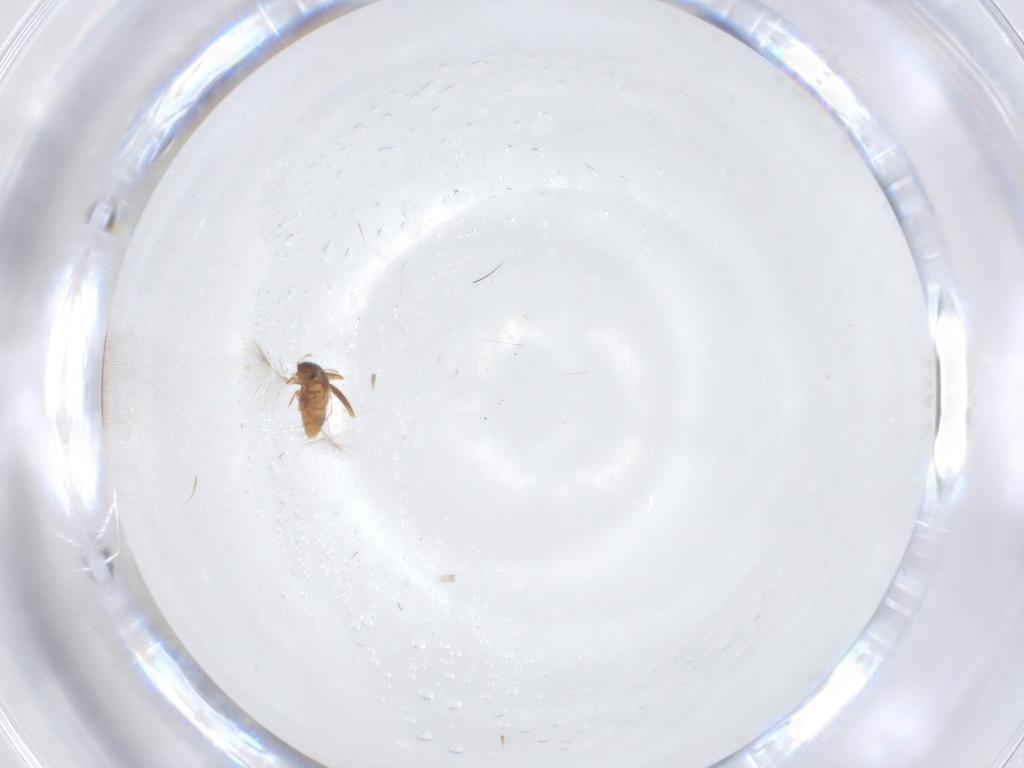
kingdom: Animalia
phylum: Arthropoda
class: Insecta
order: Coleoptera
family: Ptiliidae
